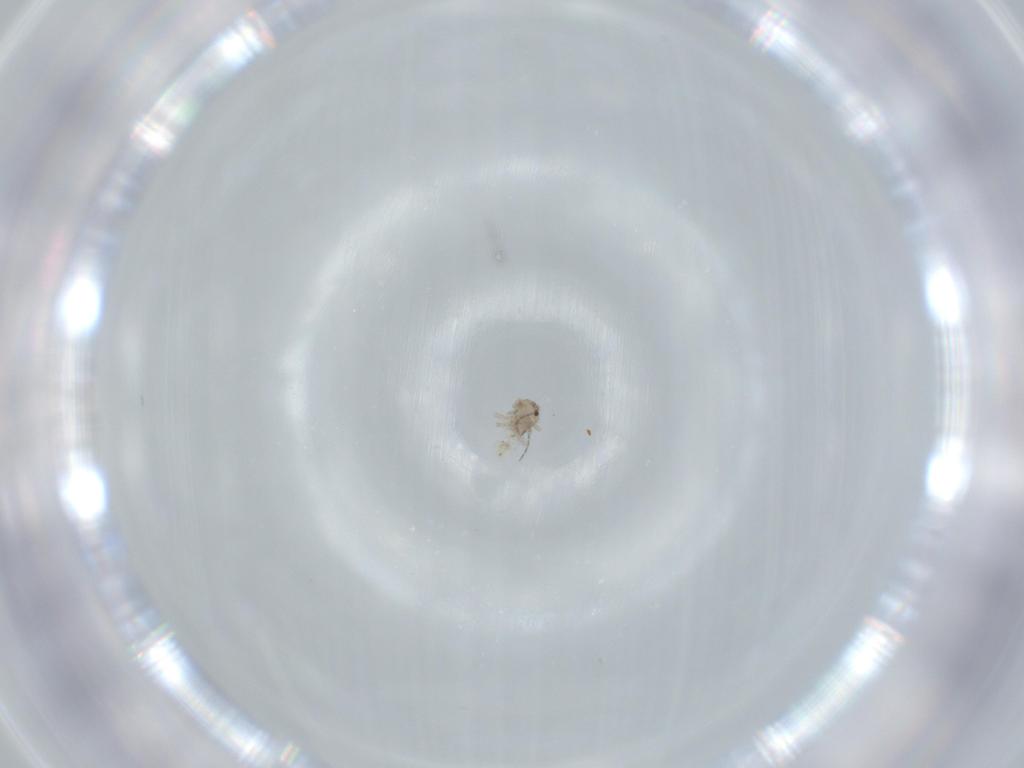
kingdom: Animalia
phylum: Arthropoda
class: Insecta
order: Psocodea
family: Lepidopsocidae
